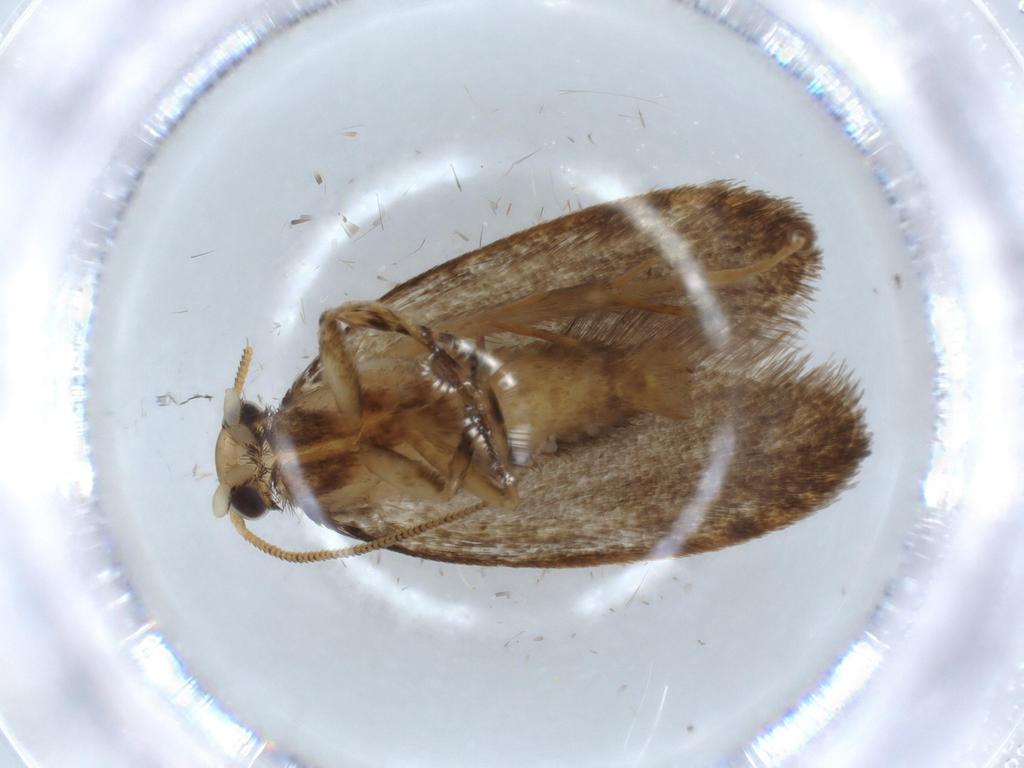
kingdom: Animalia
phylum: Arthropoda
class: Insecta
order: Lepidoptera
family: Tineidae
